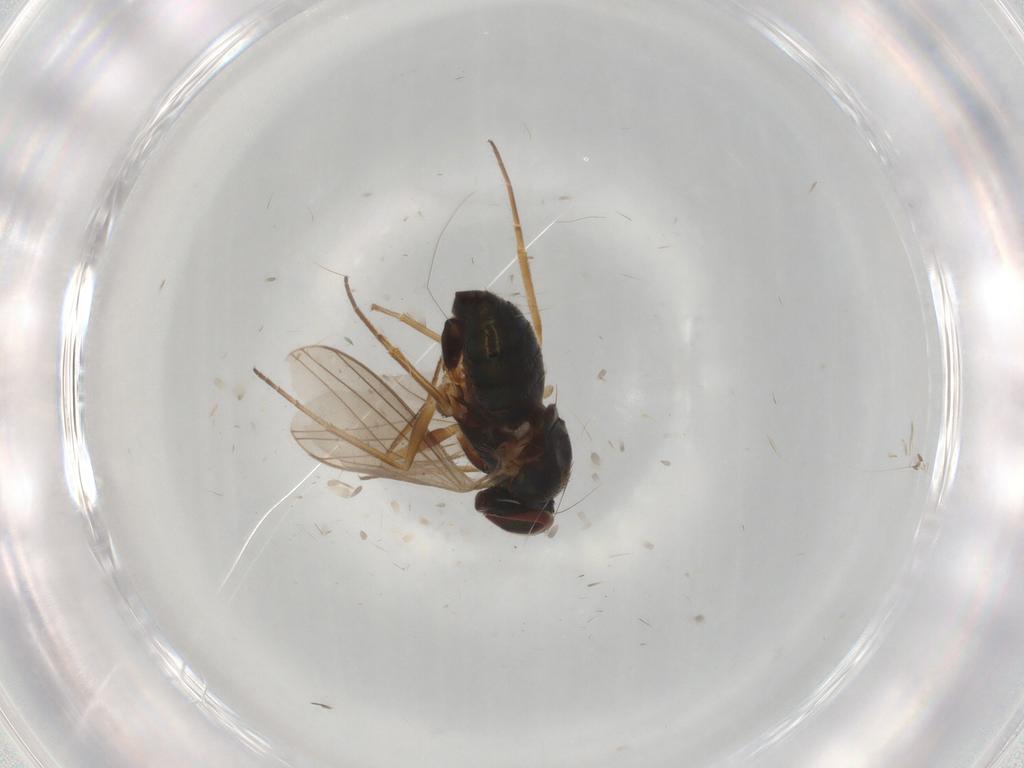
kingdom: Animalia
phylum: Arthropoda
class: Insecta
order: Diptera
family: Dolichopodidae
